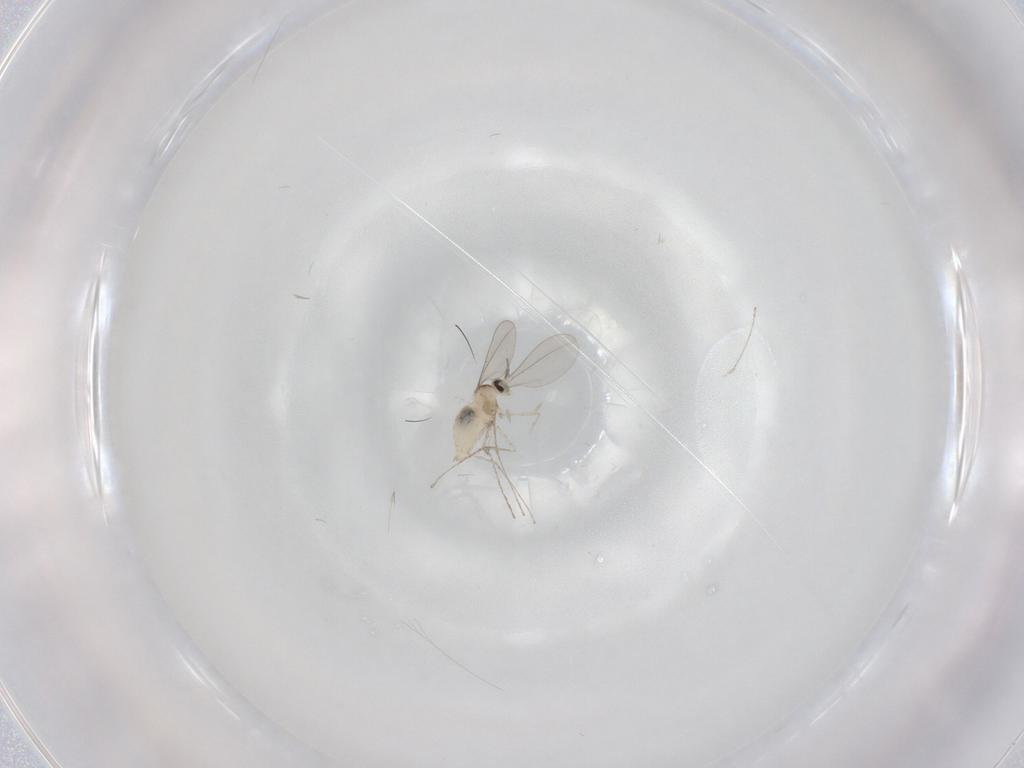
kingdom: Animalia
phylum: Arthropoda
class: Insecta
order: Diptera
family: Cecidomyiidae
